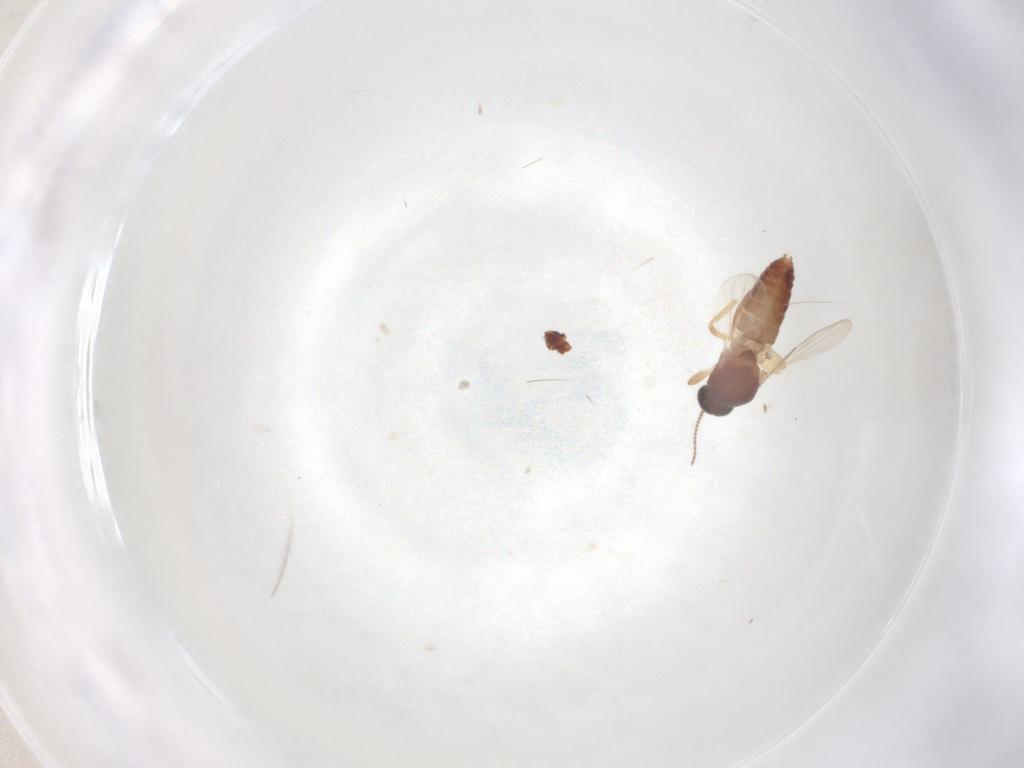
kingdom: Animalia
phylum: Arthropoda
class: Insecta
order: Diptera
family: Ceratopogonidae
